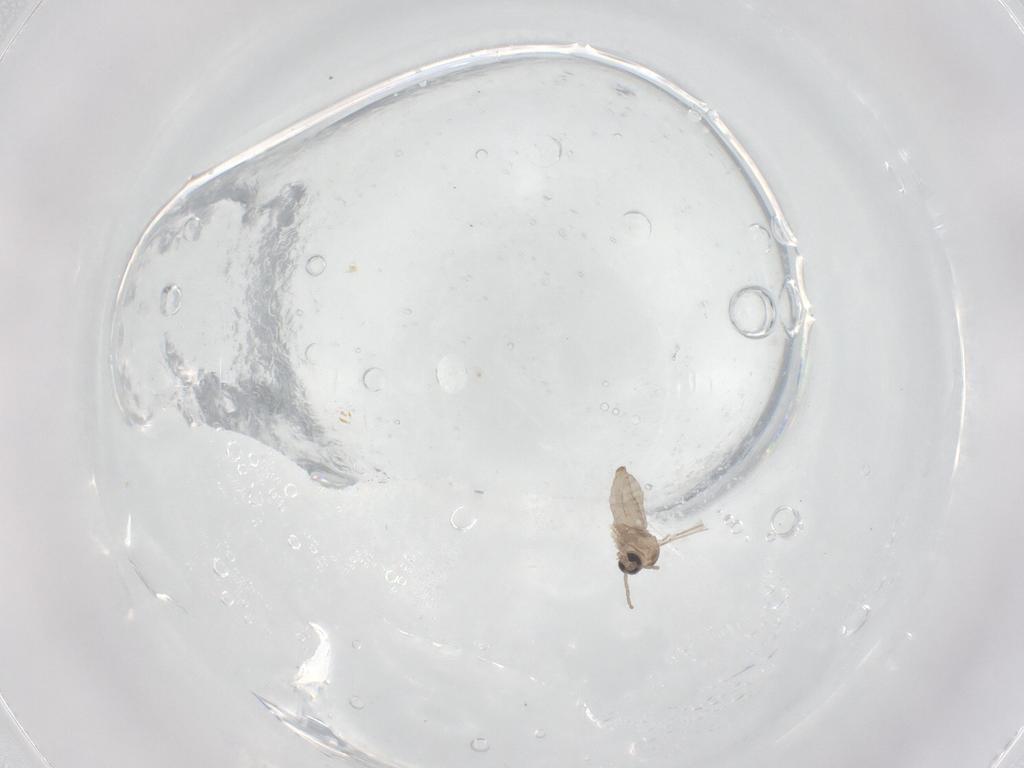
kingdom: Animalia
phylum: Arthropoda
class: Insecta
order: Diptera
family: Cecidomyiidae
